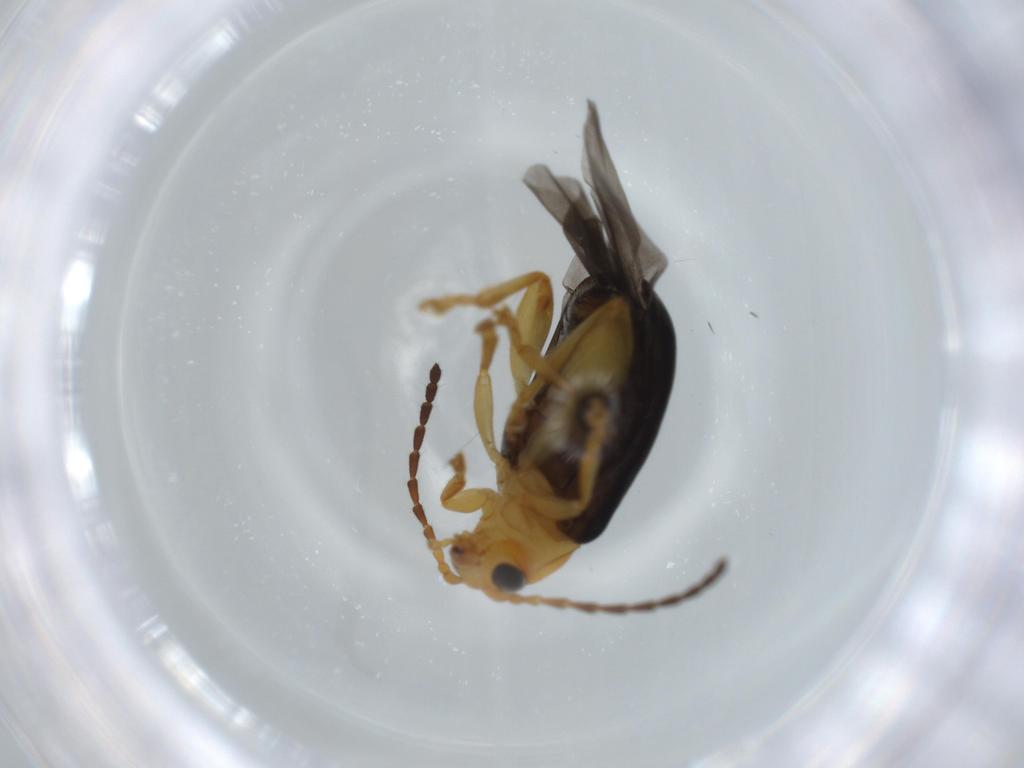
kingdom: Animalia
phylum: Arthropoda
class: Insecta
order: Coleoptera
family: Chrysomelidae
